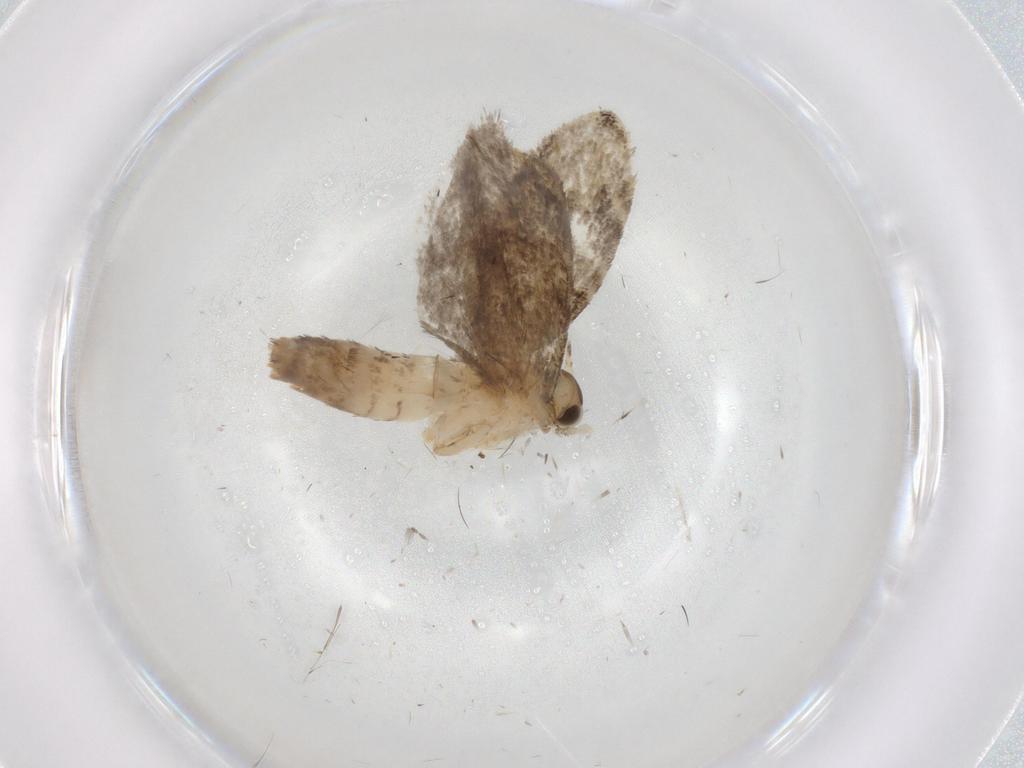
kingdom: Animalia
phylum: Arthropoda
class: Insecta
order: Lepidoptera
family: Tineidae
